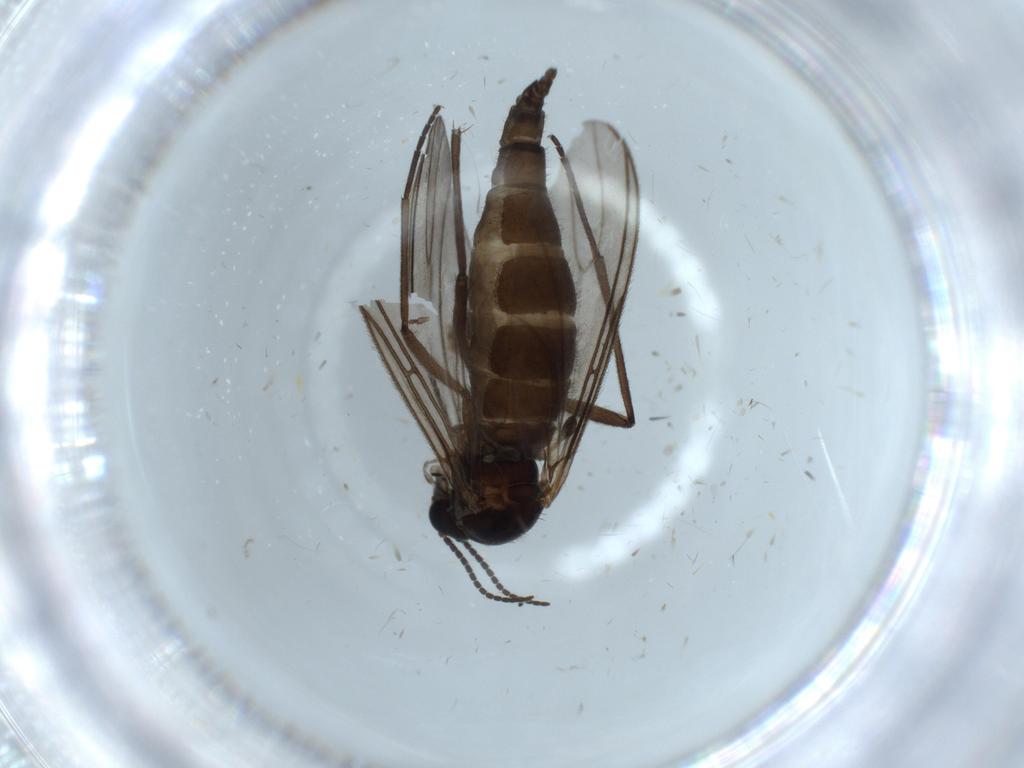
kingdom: Animalia
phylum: Arthropoda
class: Insecta
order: Diptera
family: Sciaridae
